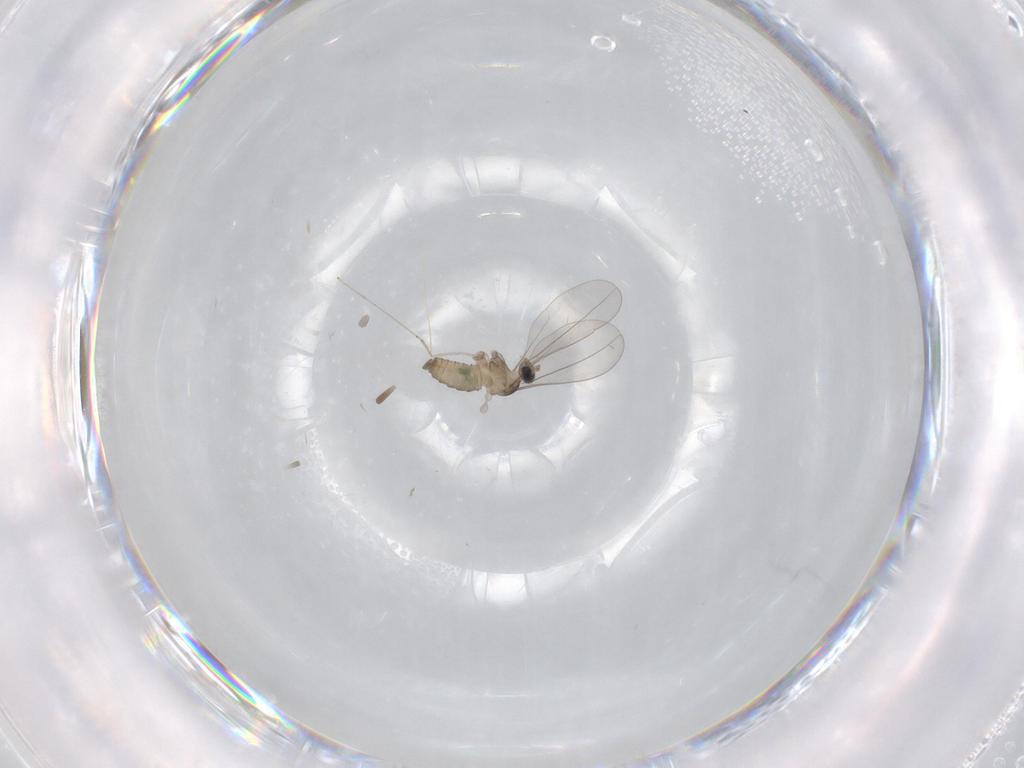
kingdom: Animalia
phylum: Arthropoda
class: Insecta
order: Diptera
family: Cecidomyiidae
